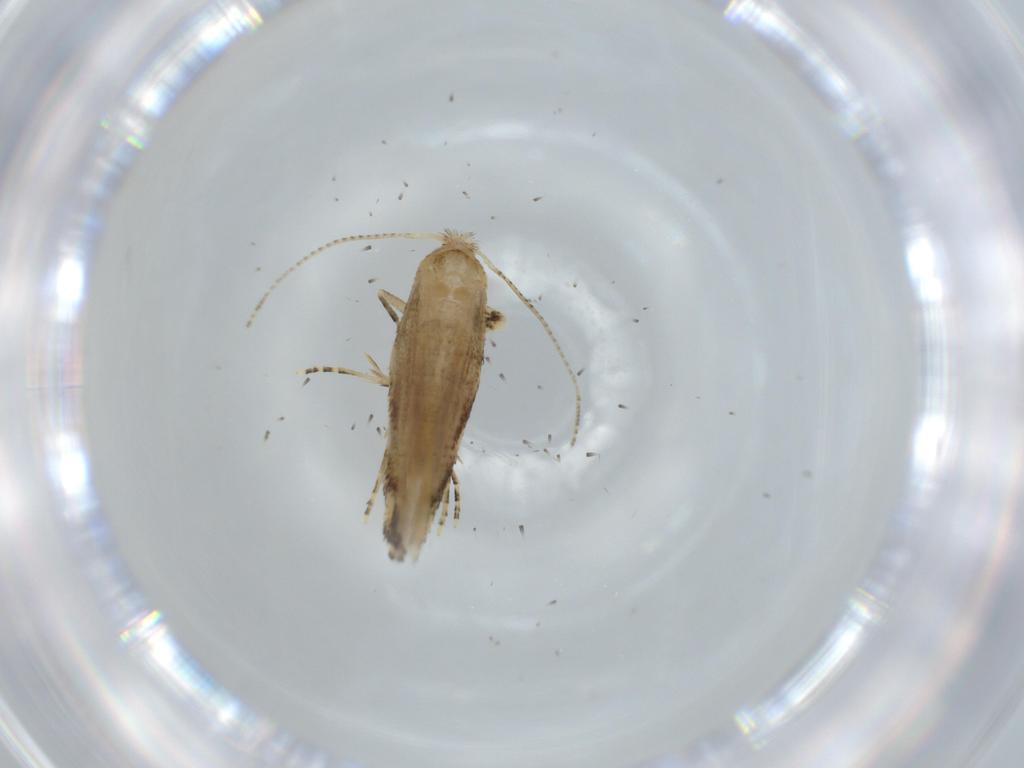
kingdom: Animalia
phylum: Arthropoda
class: Insecta
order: Lepidoptera
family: Bucculatricidae
